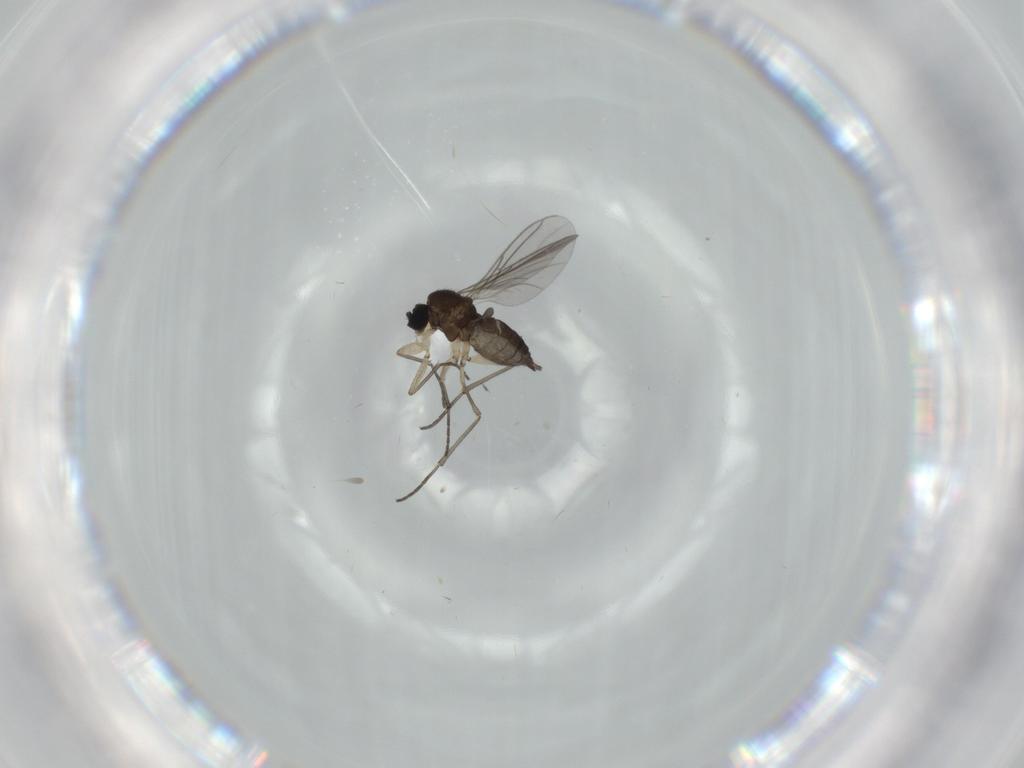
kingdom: Animalia
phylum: Arthropoda
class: Insecta
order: Diptera
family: Sciaridae
